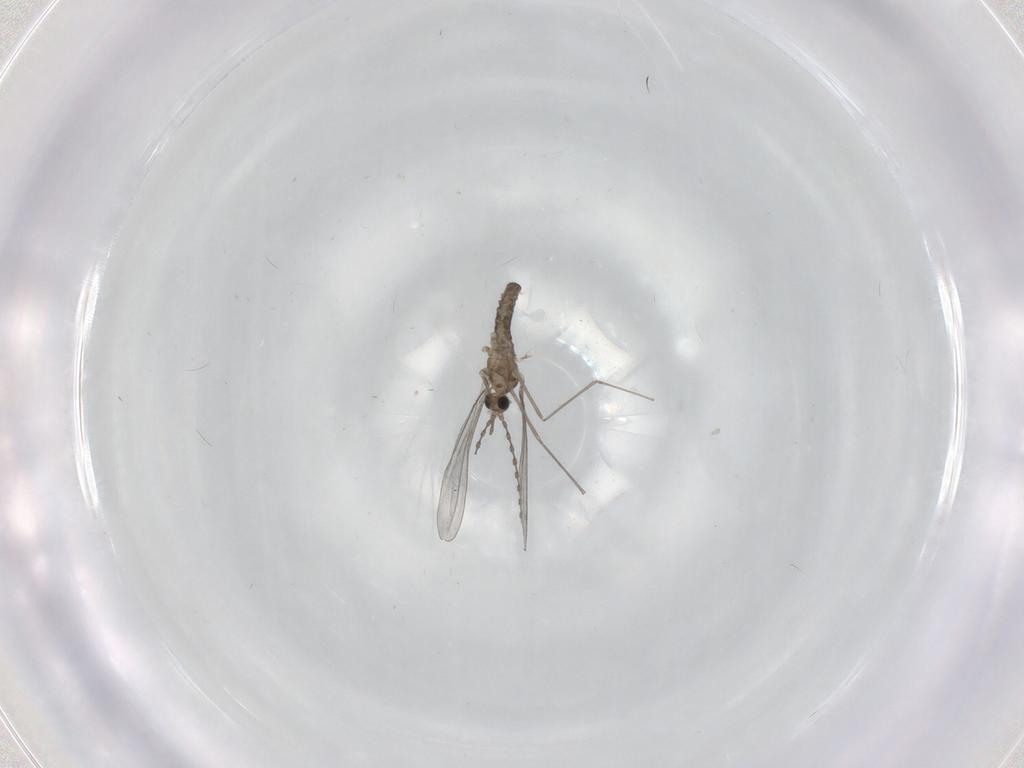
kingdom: Animalia
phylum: Arthropoda
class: Insecta
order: Diptera
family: Cecidomyiidae
